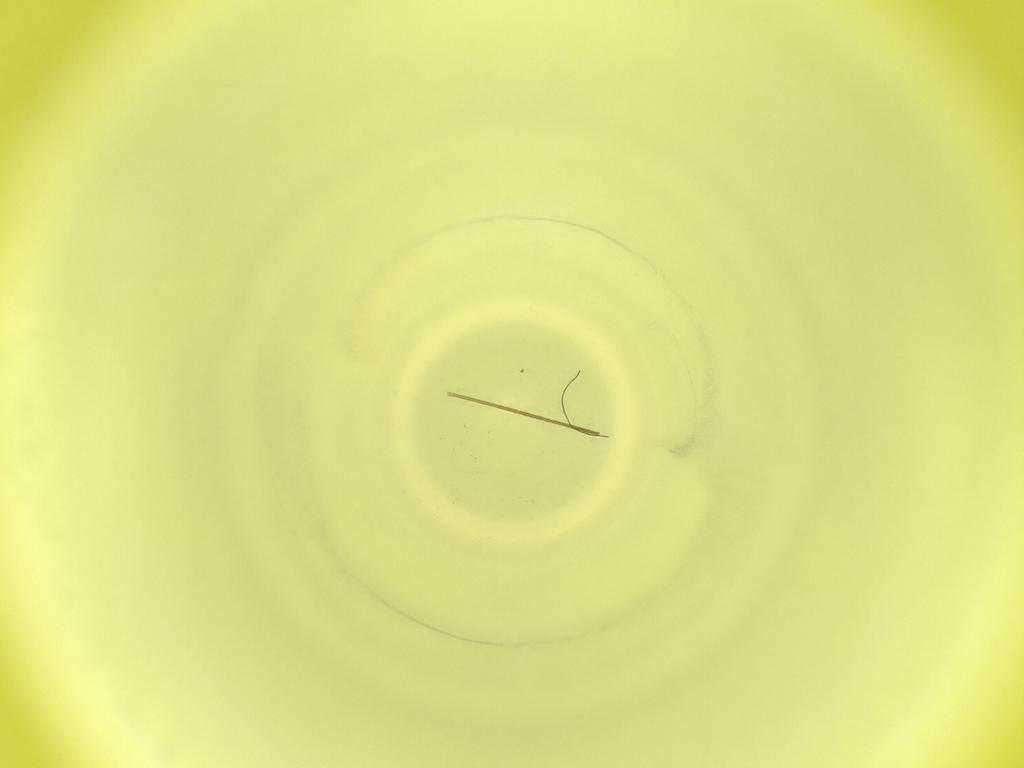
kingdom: Animalia
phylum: Arthropoda
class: Insecta
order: Diptera
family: Cecidomyiidae
